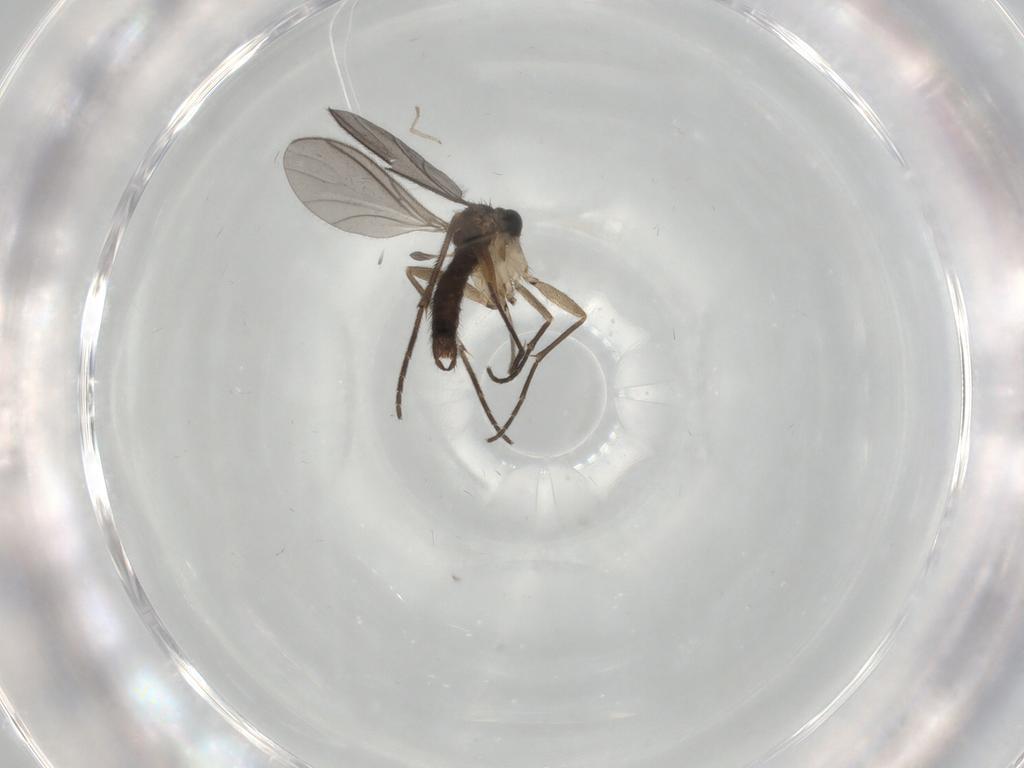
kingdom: Animalia
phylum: Arthropoda
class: Insecta
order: Diptera
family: Sciaridae
